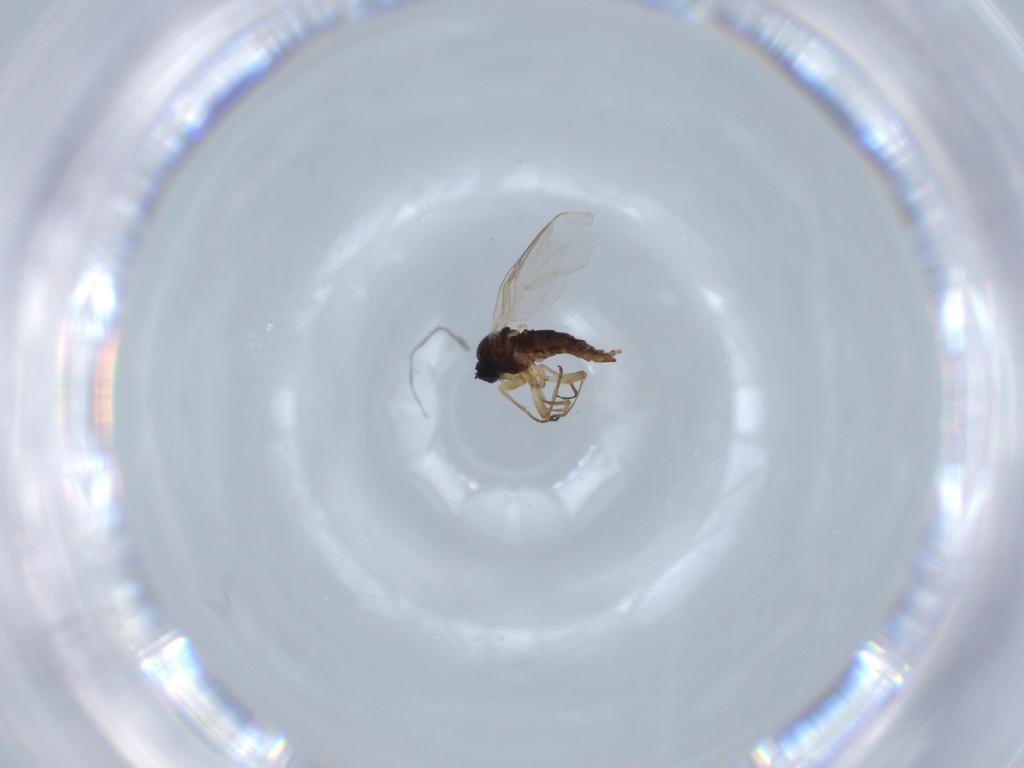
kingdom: Animalia
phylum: Arthropoda
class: Insecta
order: Diptera
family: Sciaridae
